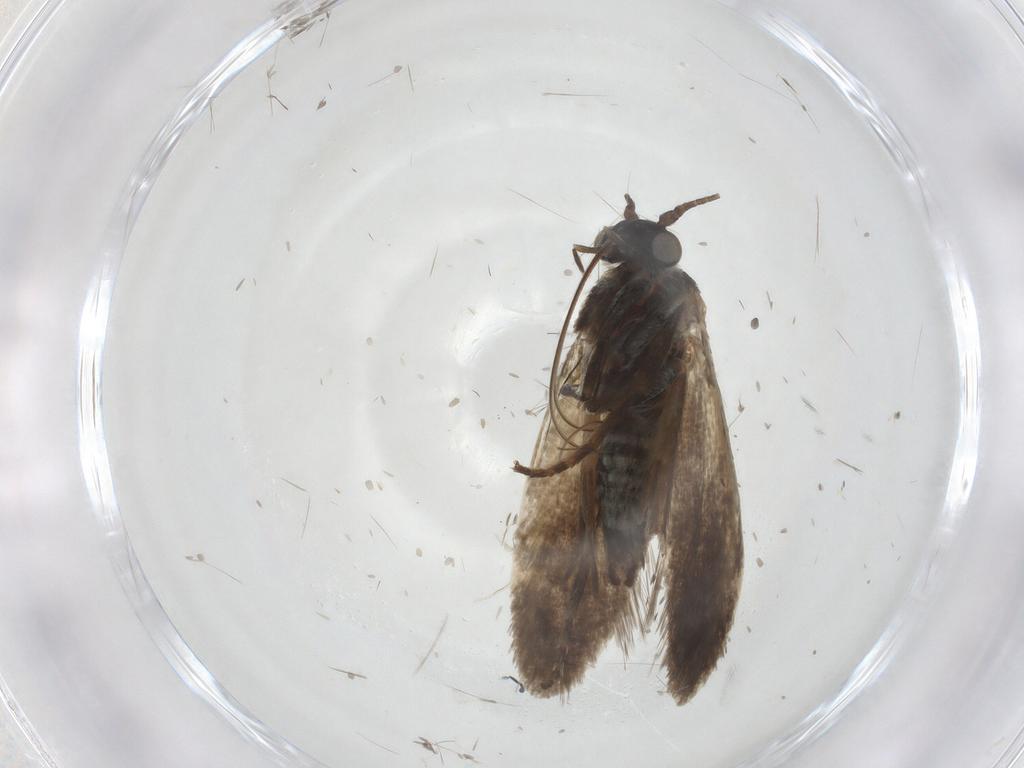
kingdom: Animalia
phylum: Arthropoda
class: Insecta
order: Lepidoptera
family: Adelidae
